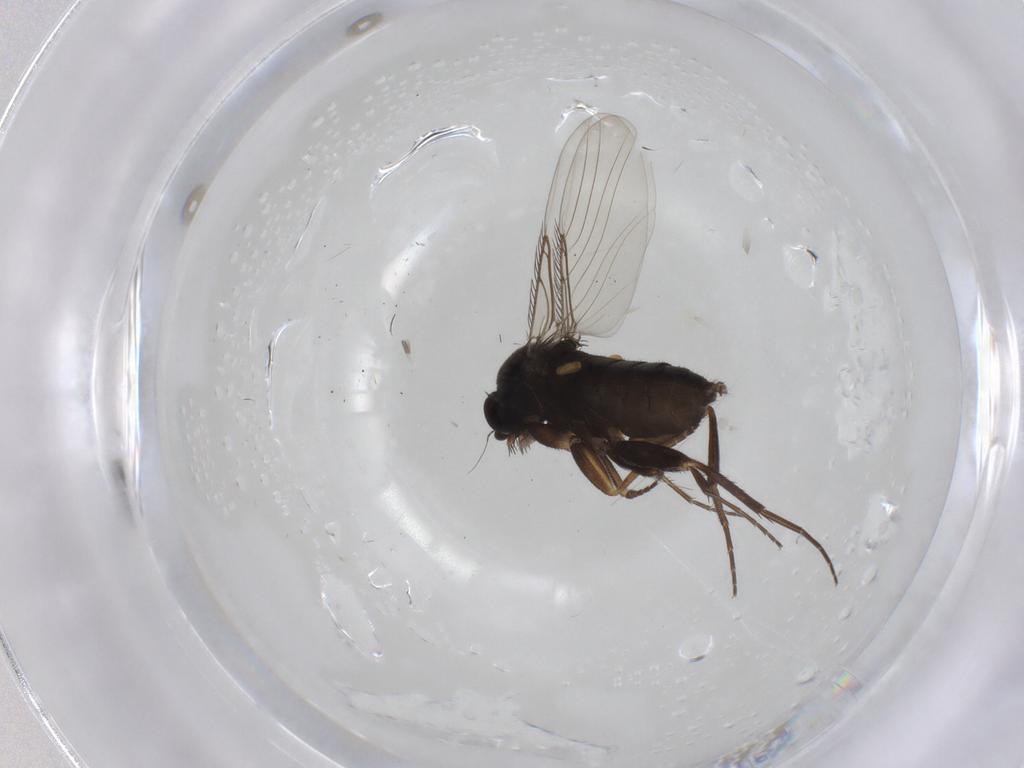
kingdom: Animalia
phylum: Arthropoda
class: Insecta
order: Diptera
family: Phoridae
